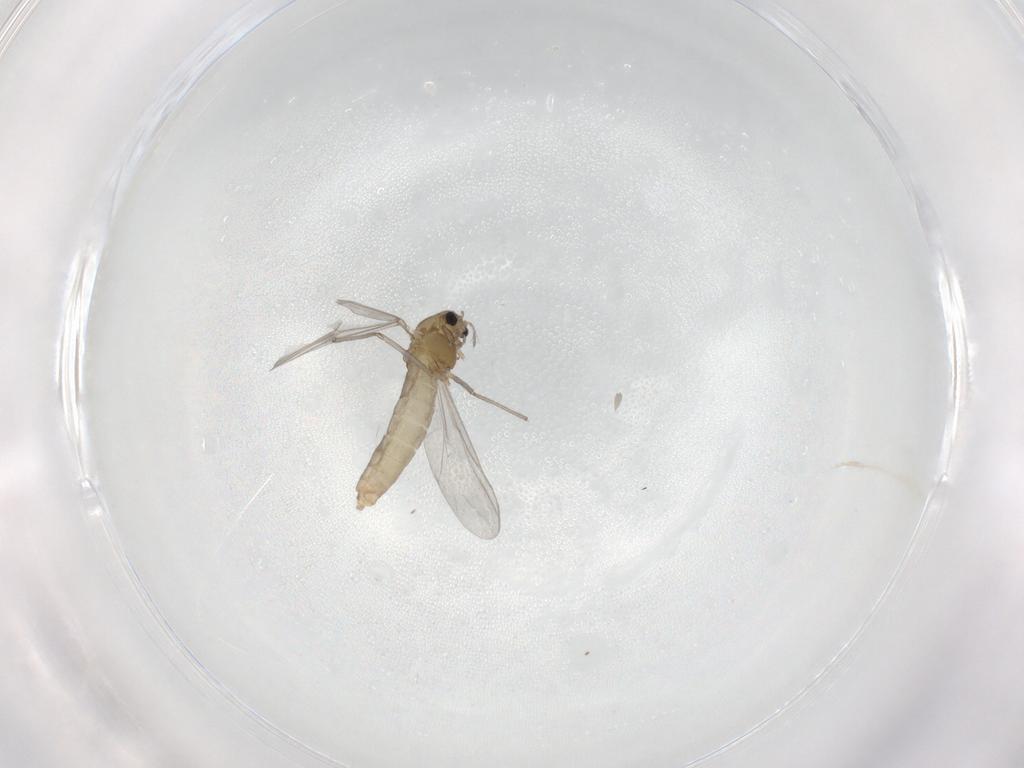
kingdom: Animalia
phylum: Arthropoda
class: Insecta
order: Diptera
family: Chironomidae
